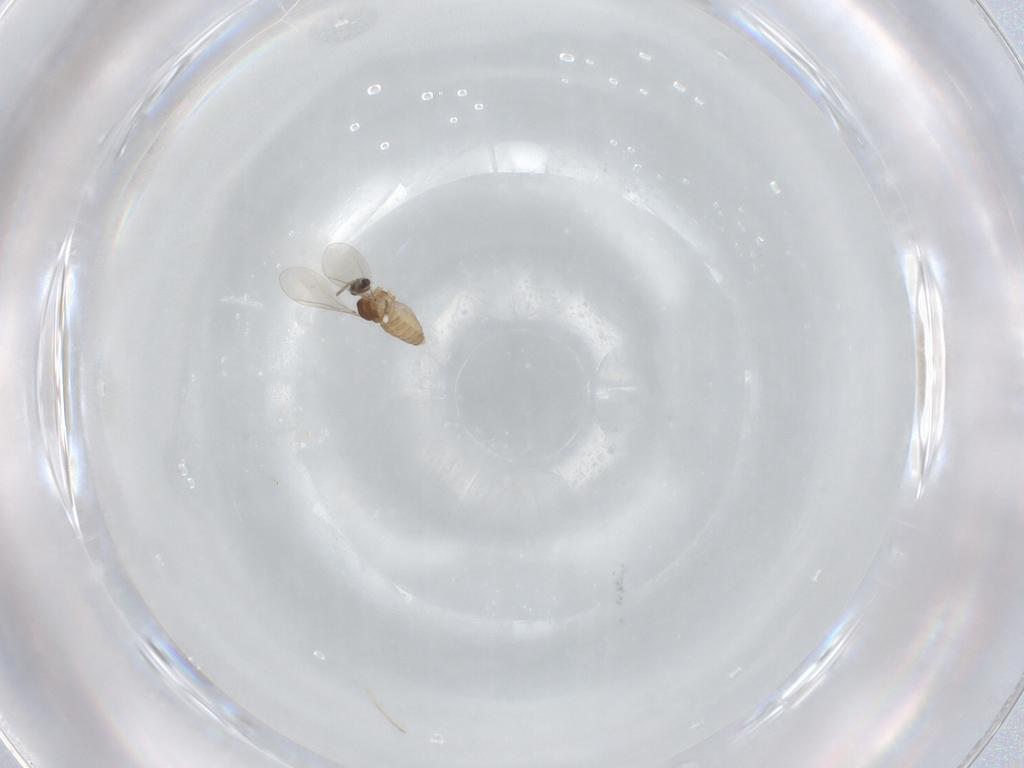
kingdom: Animalia
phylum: Arthropoda
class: Insecta
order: Diptera
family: Cecidomyiidae
